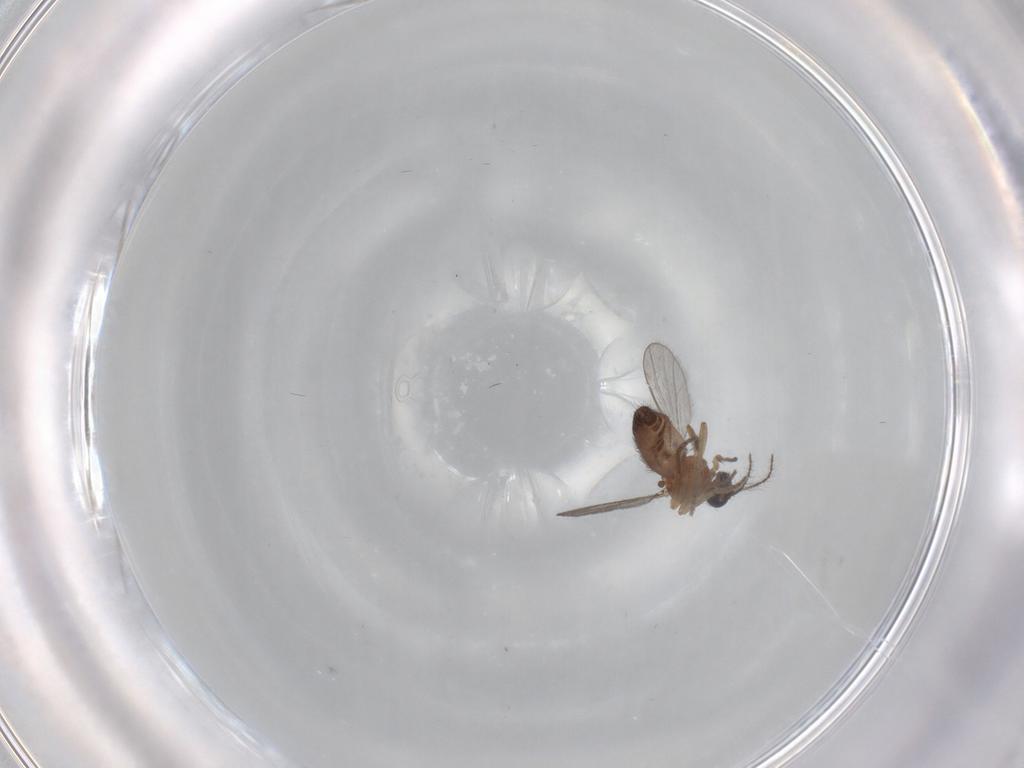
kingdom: Animalia
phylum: Arthropoda
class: Insecta
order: Diptera
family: Ceratopogonidae
